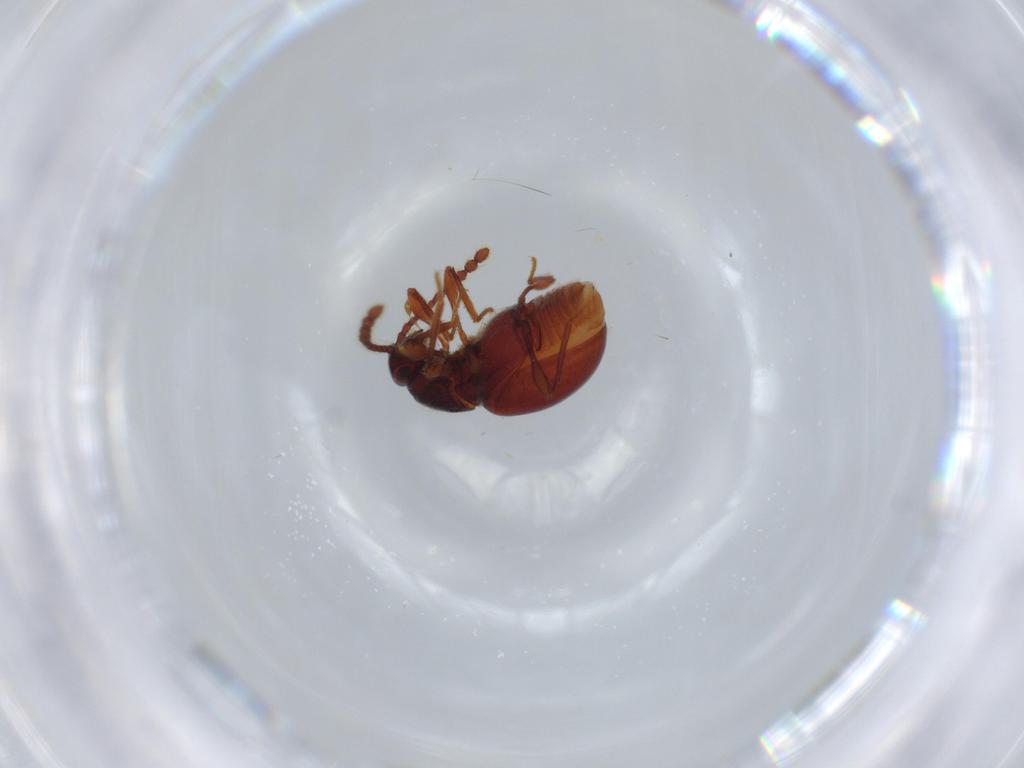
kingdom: Animalia
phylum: Arthropoda
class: Insecta
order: Coleoptera
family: Staphylinidae
